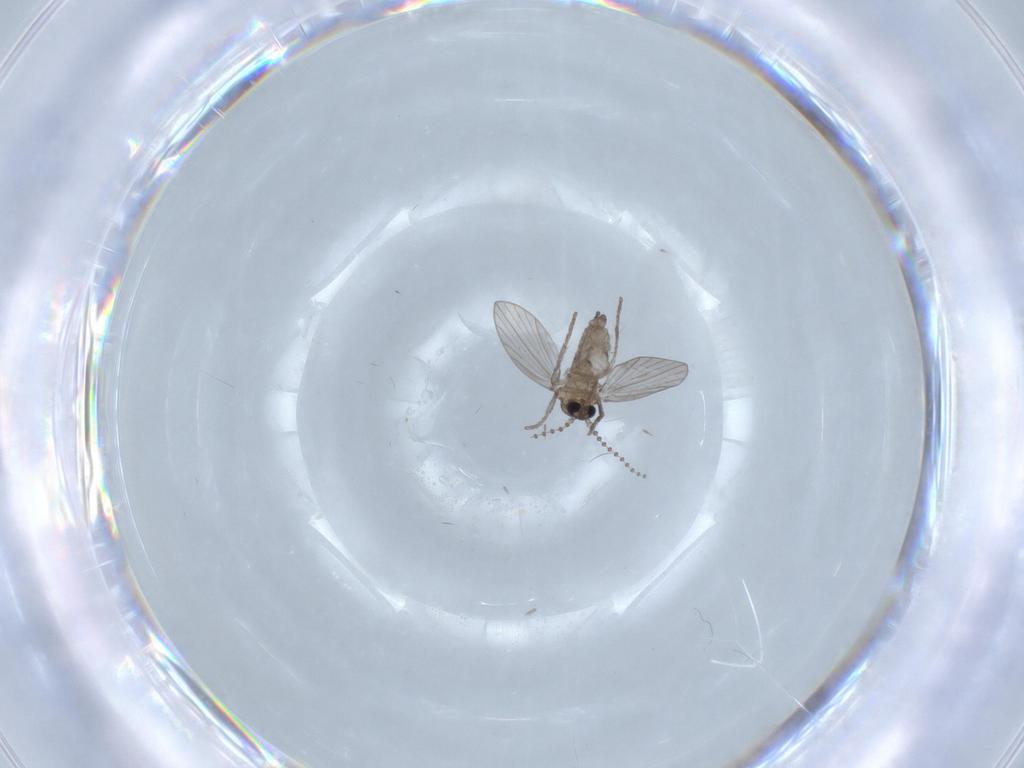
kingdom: Animalia
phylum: Arthropoda
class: Insecta
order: Diptera
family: Psychodidae
